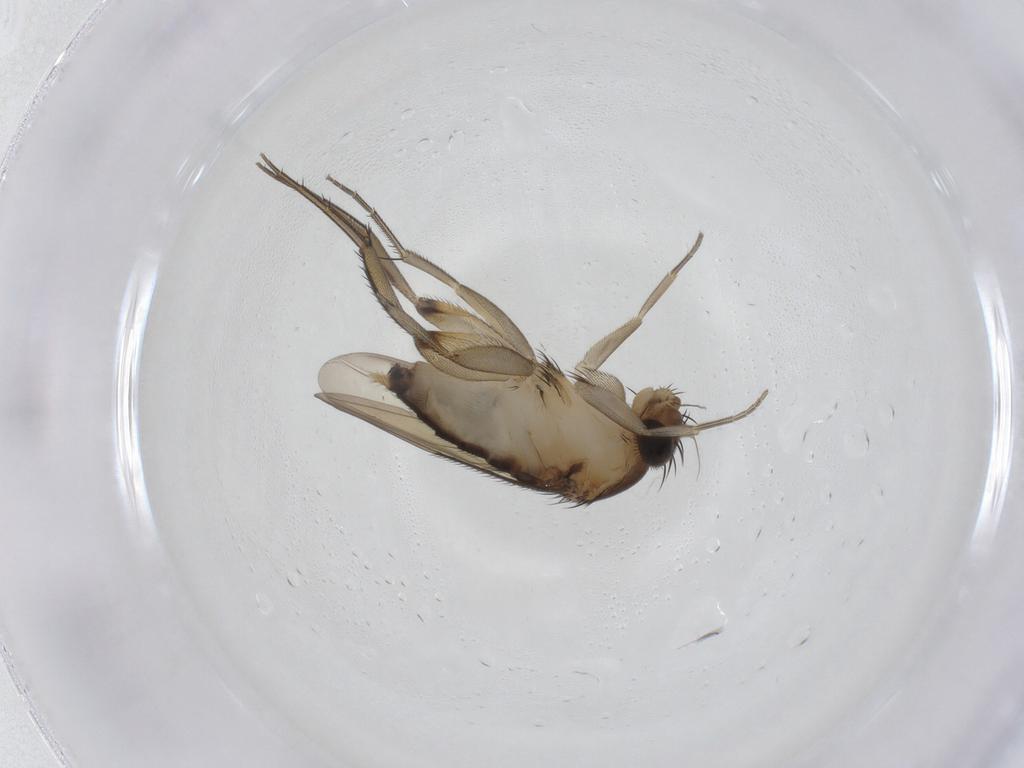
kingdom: Animalia
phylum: Arthropoda
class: Insecta
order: Diptera
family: Phoridae
